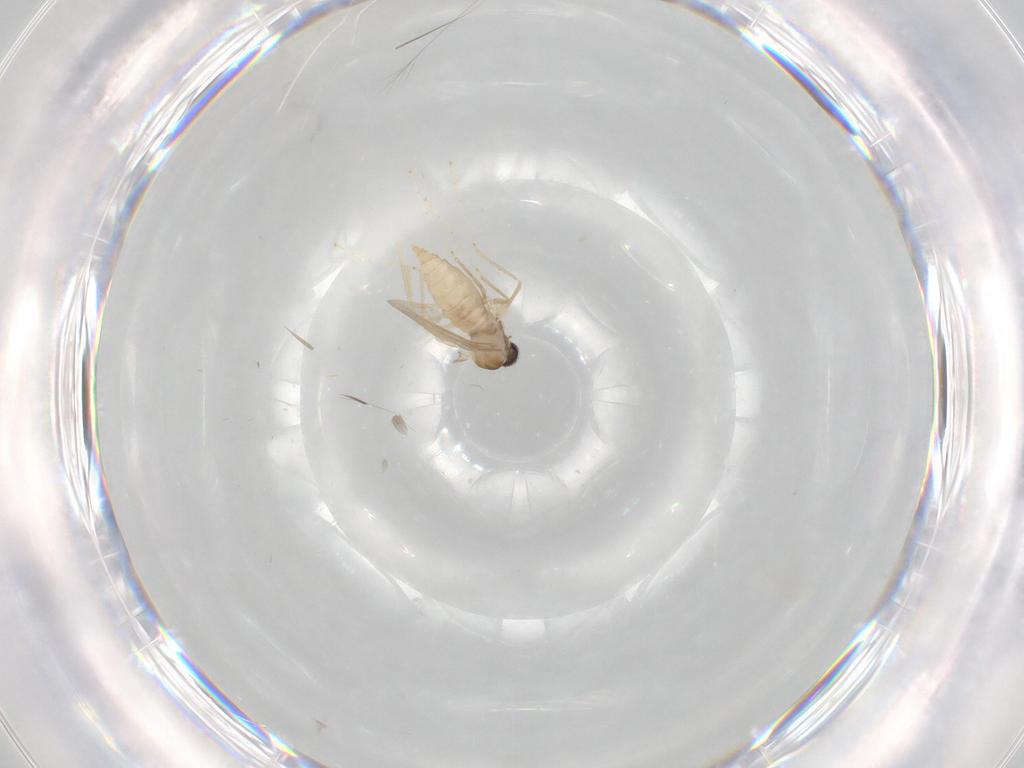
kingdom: Animalia
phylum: Arthropoda
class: Insecta
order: Diptera
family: Cecidomyiidae
